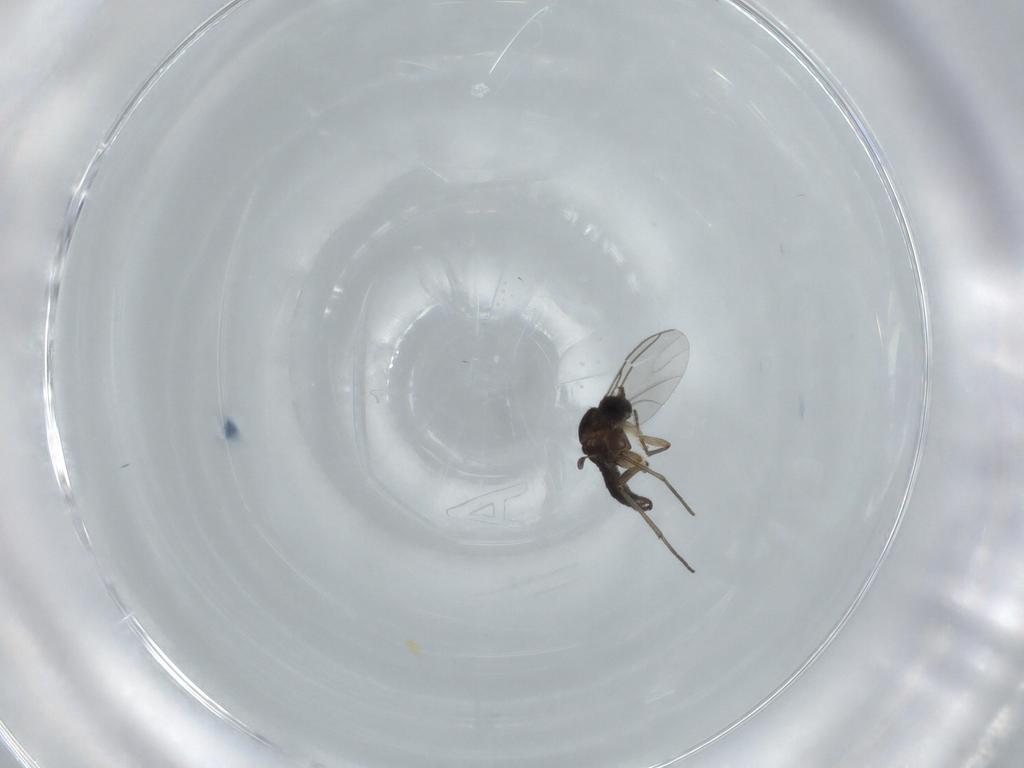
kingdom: Animalia
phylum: Arthropoda
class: Insecta
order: Diptera
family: Sciaridae
